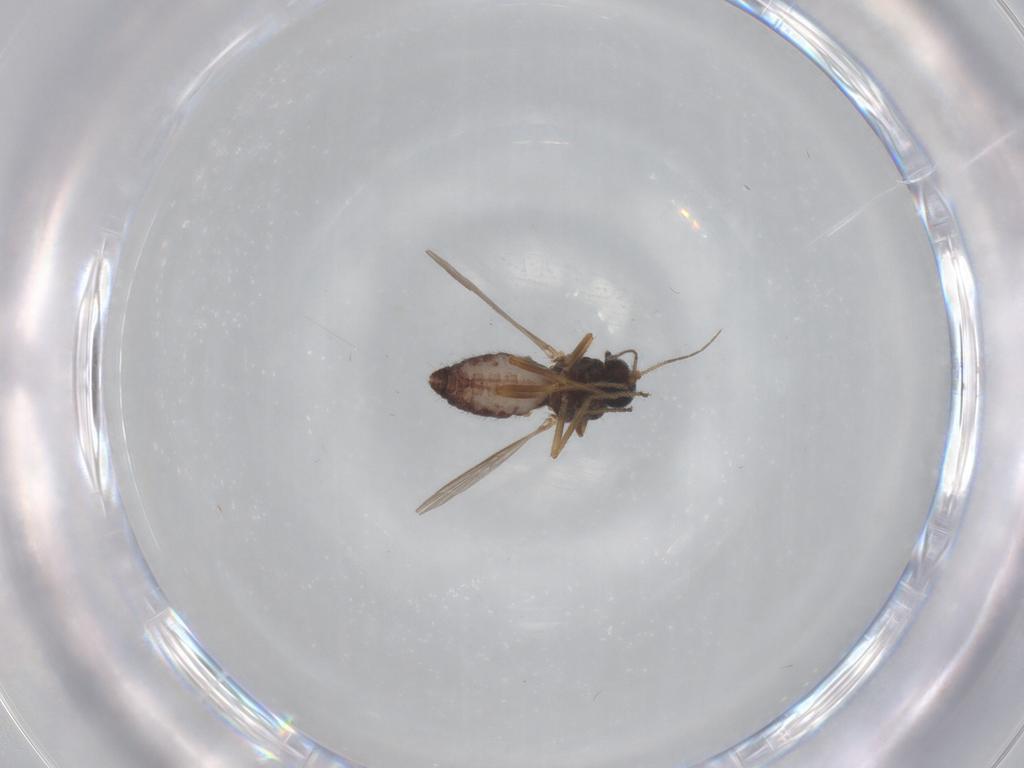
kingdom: Animalia
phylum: Arthropoda
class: Insecta
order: Diptera
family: Ceratopogonidae
